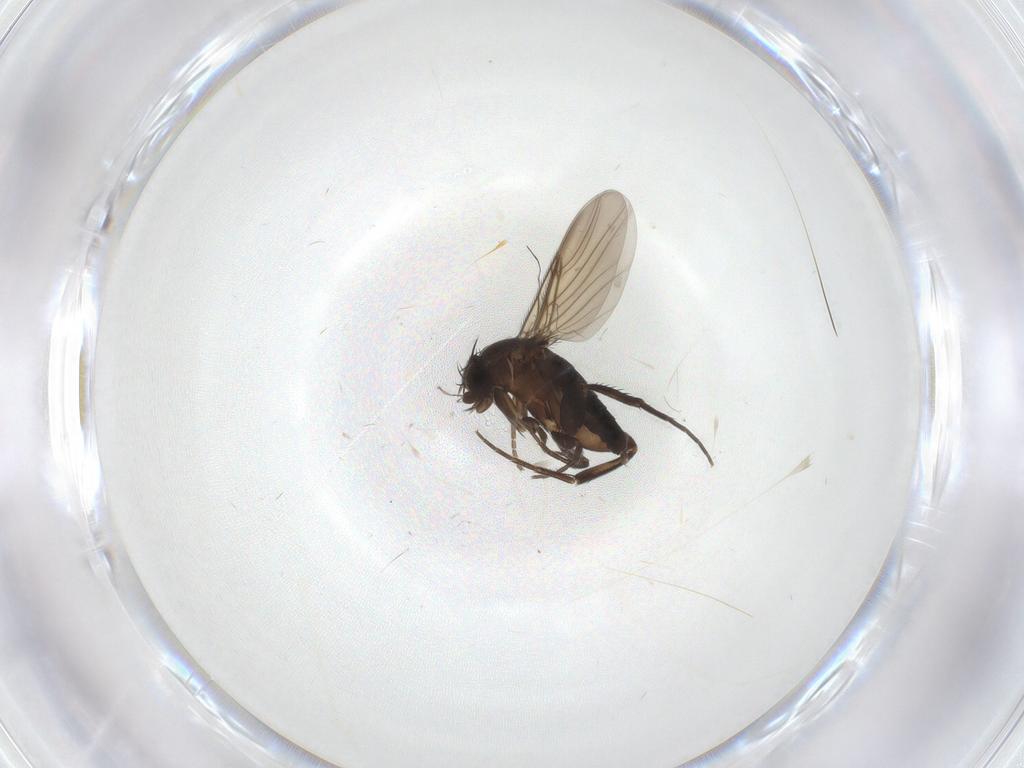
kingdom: Animalia
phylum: Arthropoda
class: Insecta
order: Diptera
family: Phoridae
